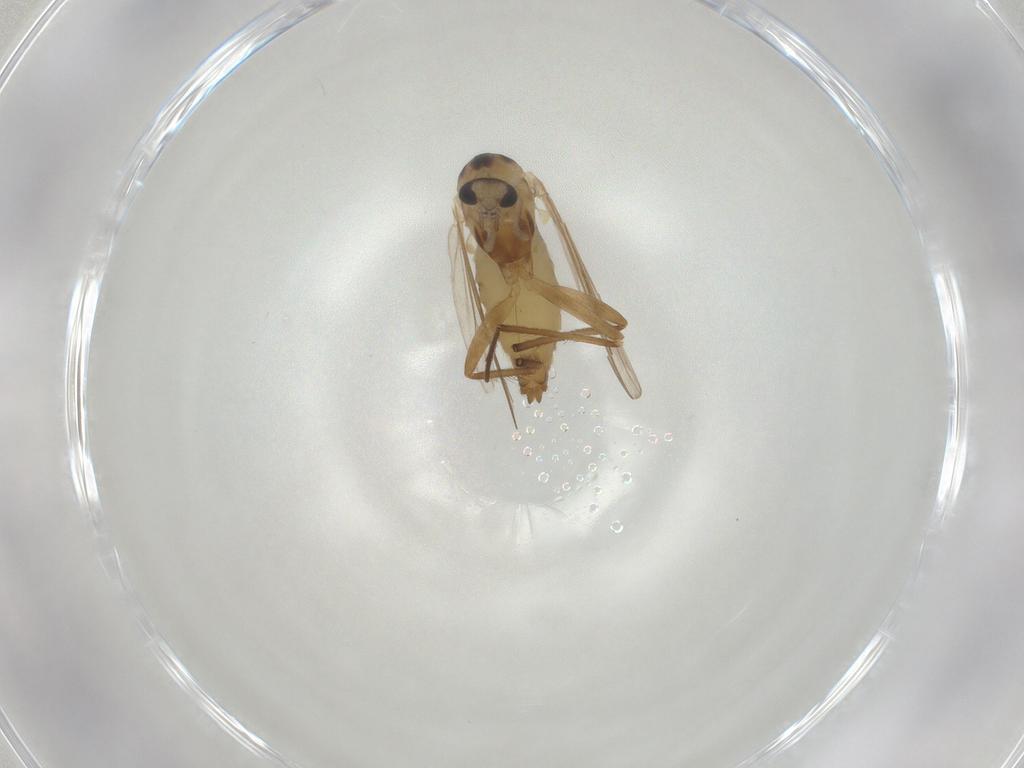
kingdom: Animalia
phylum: Arthropoda
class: Insecta
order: Diptera
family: Chironomidae
